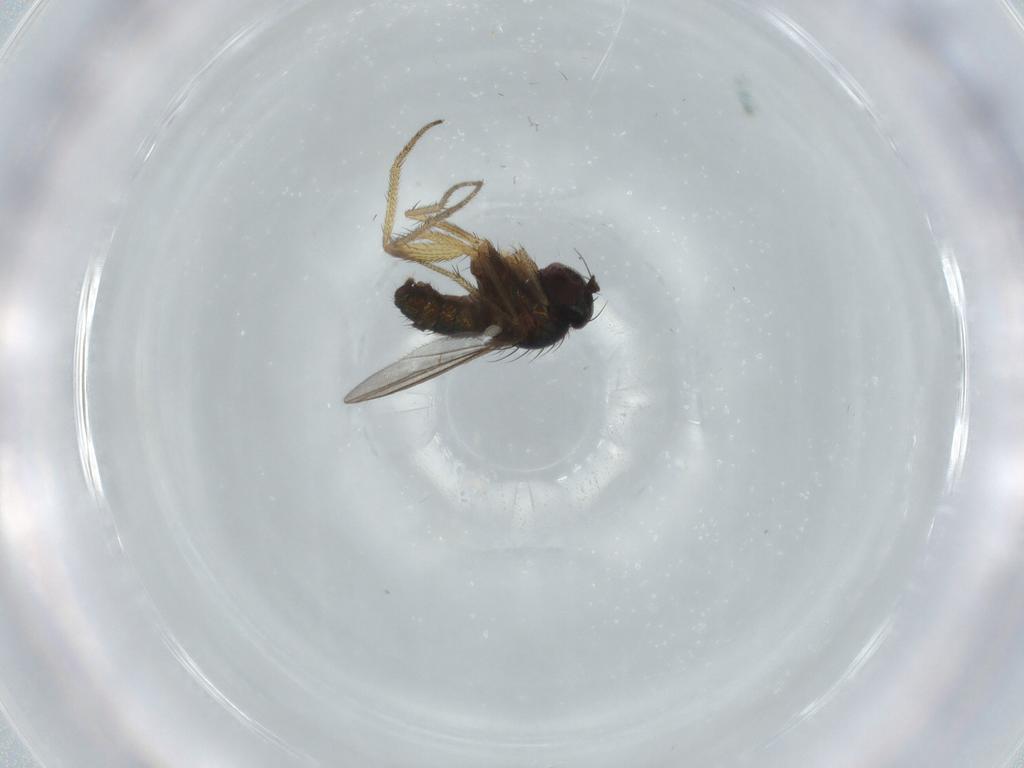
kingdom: Animalia
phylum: Arthropoda
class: Insecta
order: Diptera
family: Dolichopodidae
